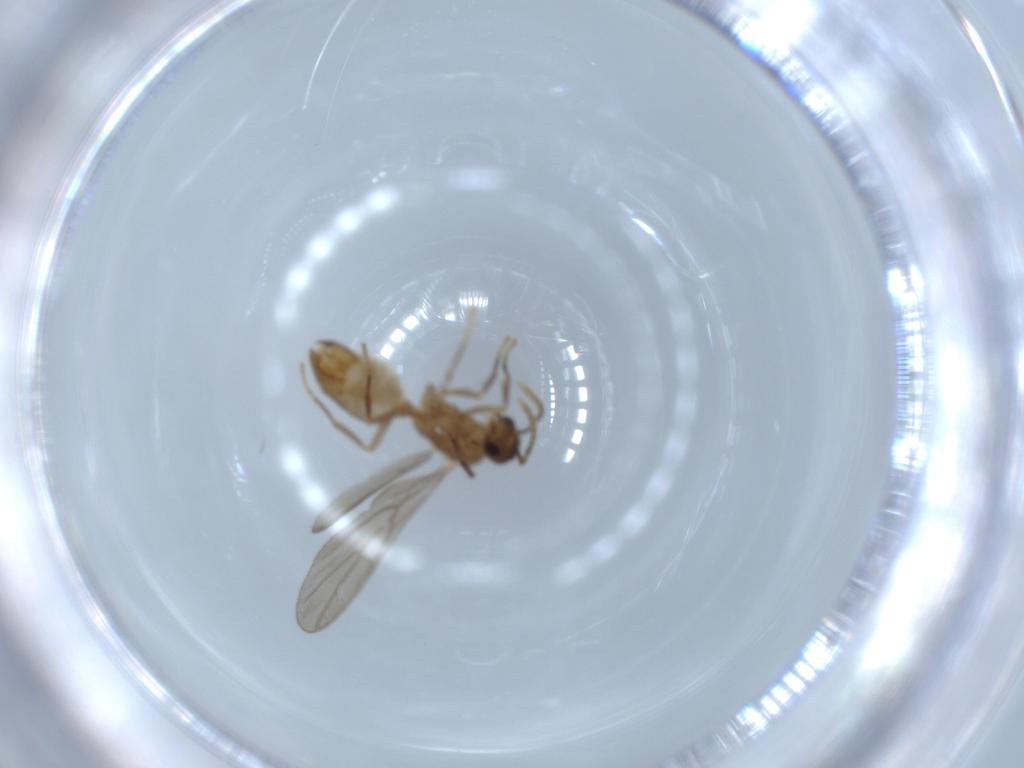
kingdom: Animalia
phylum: Arthropoda
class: Insecta
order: Hymenoptera
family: Formicidae
